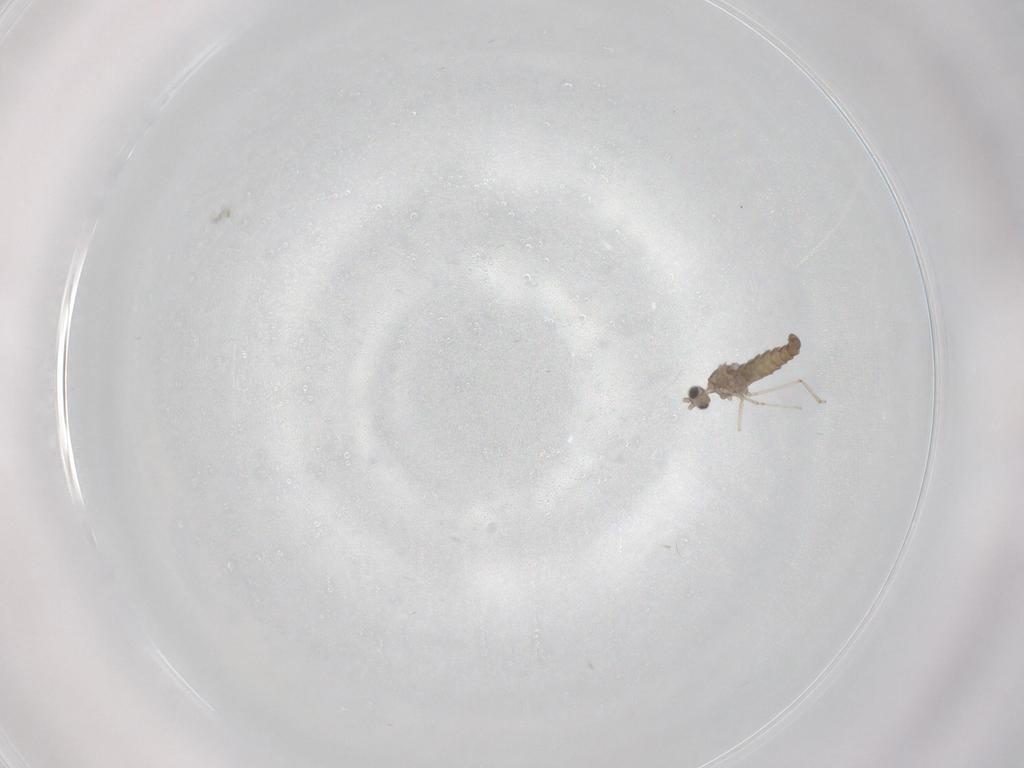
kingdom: Animalia
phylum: Arthropoda
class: Insecta
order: Diptera
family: Cecidomyiidae
